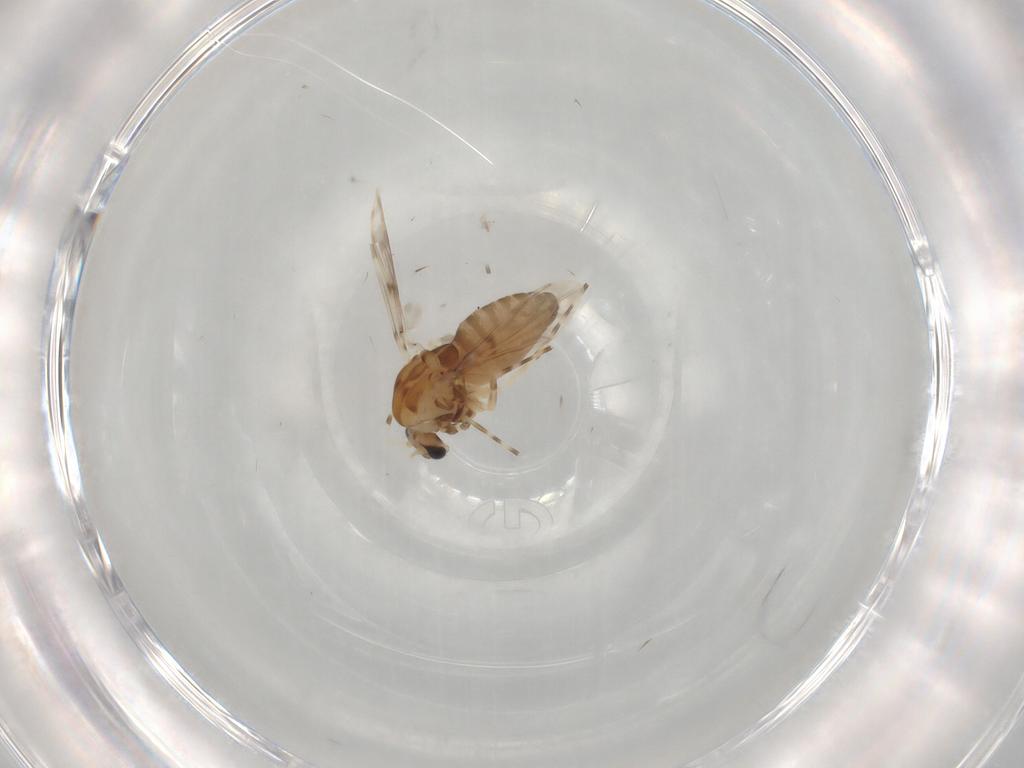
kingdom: Animalia
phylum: Arthropoda
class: Insecta
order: Diptera
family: Chironomidae
